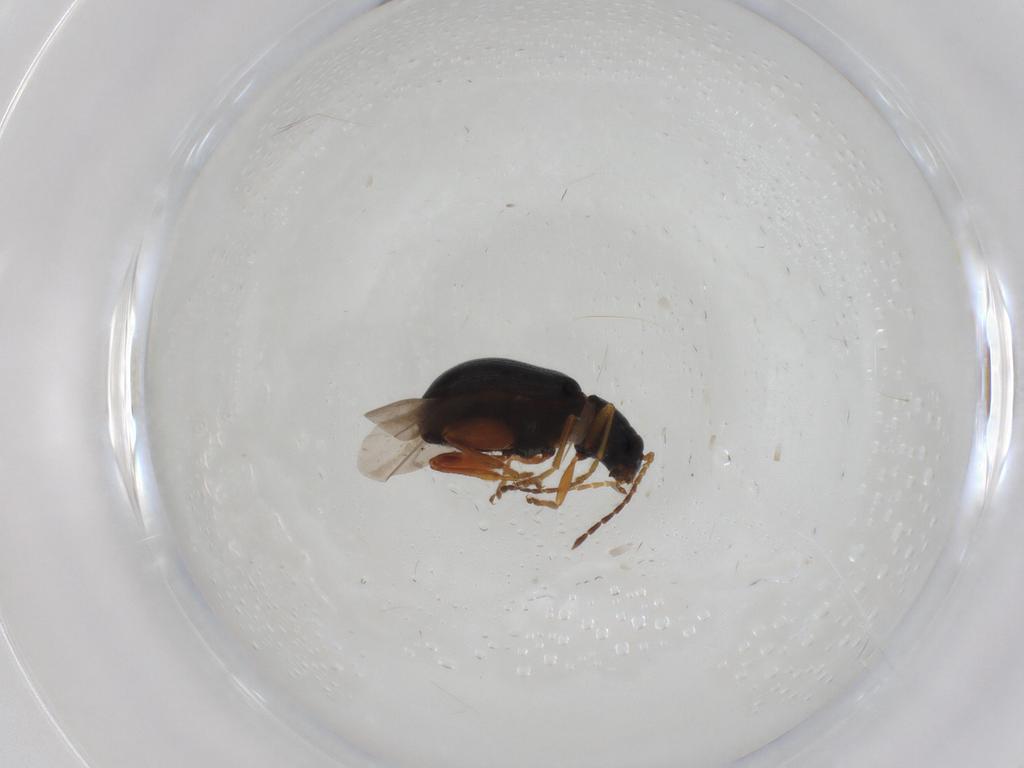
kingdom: Animalia
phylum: Arthropoda
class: Insecta
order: Coleoptera
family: Chrysomelidae
